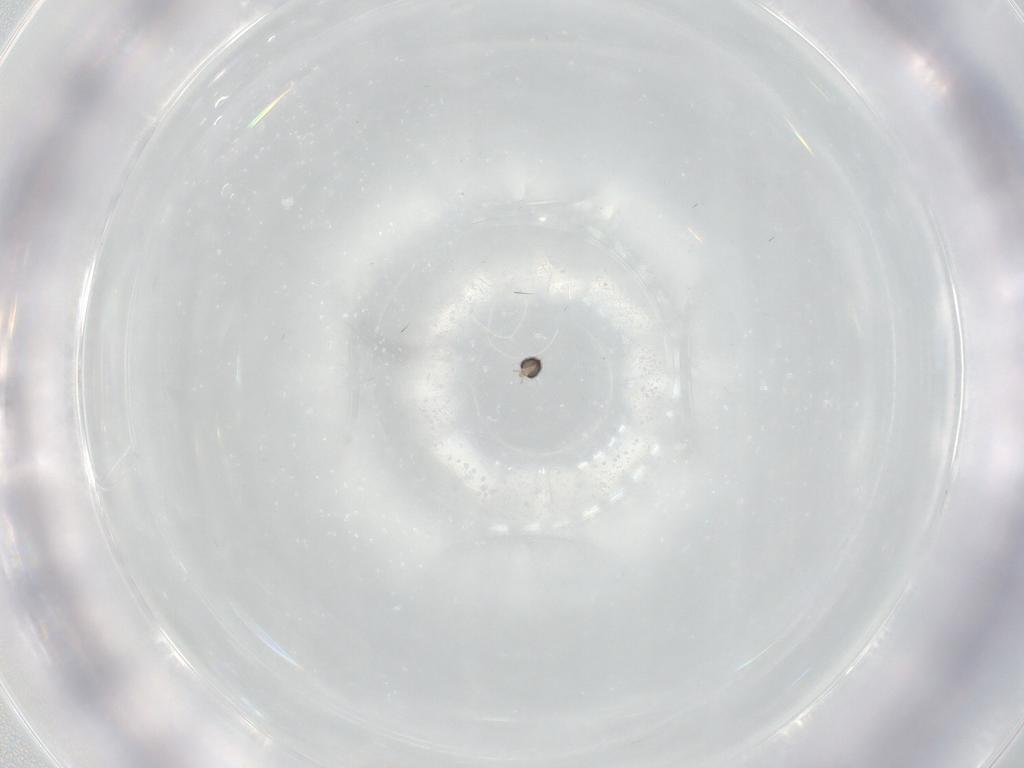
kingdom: Animalia
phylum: Arthropoda
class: Insecta
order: Diptera
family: Cecidomyiidae
